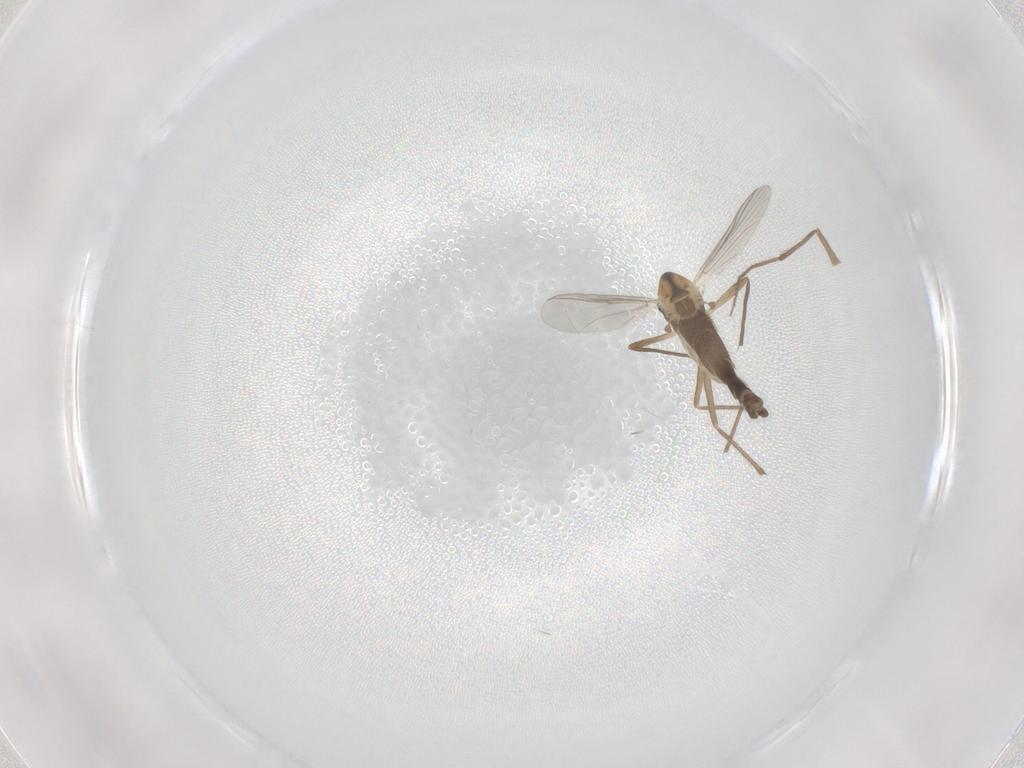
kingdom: Animalia
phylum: Arthropoda
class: Insecta
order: Diptera
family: Chironomidae
